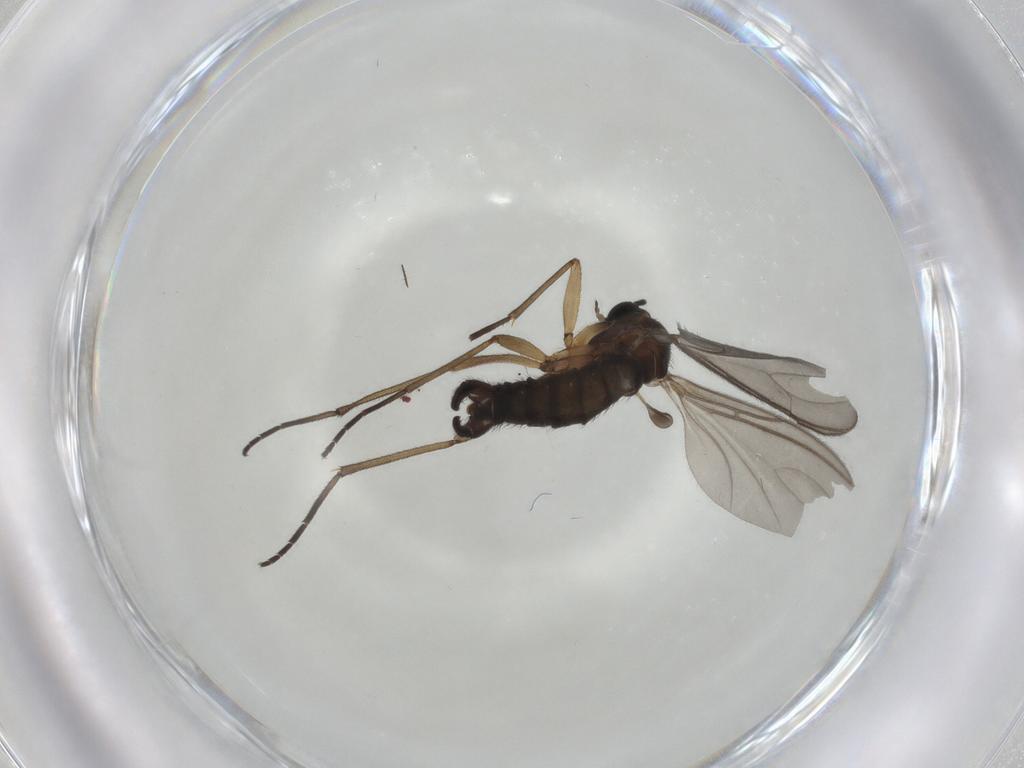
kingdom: Animalia
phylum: Arthropoda
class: Insecta
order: Diptera
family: Sciaridae
